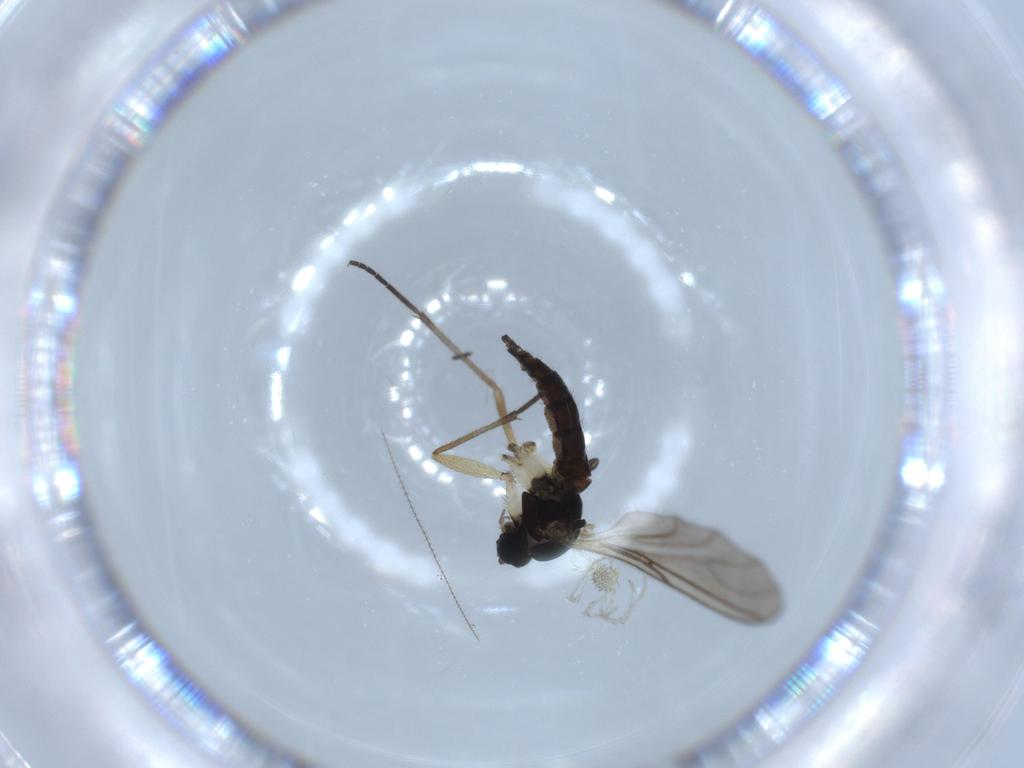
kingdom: Animalia
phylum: Arthropoda
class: Insecta
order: Diptera
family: Sciaridae
